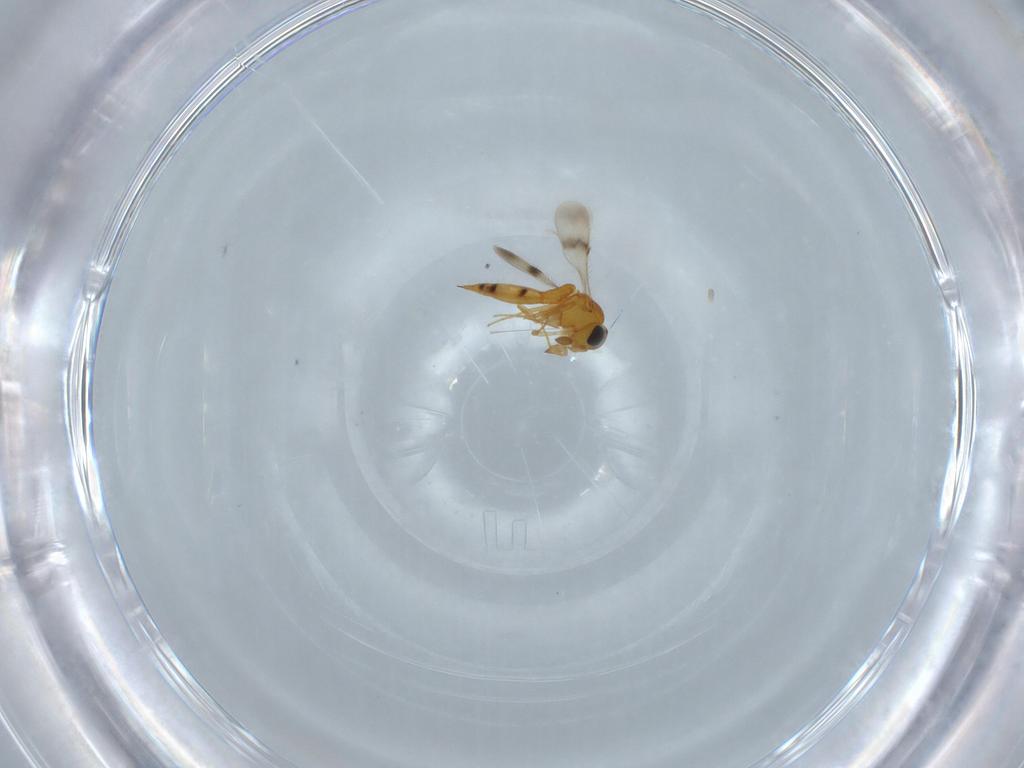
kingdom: Animalia
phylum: Arthropoda
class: Insecta
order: Hymenoptera
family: Scelionidae
